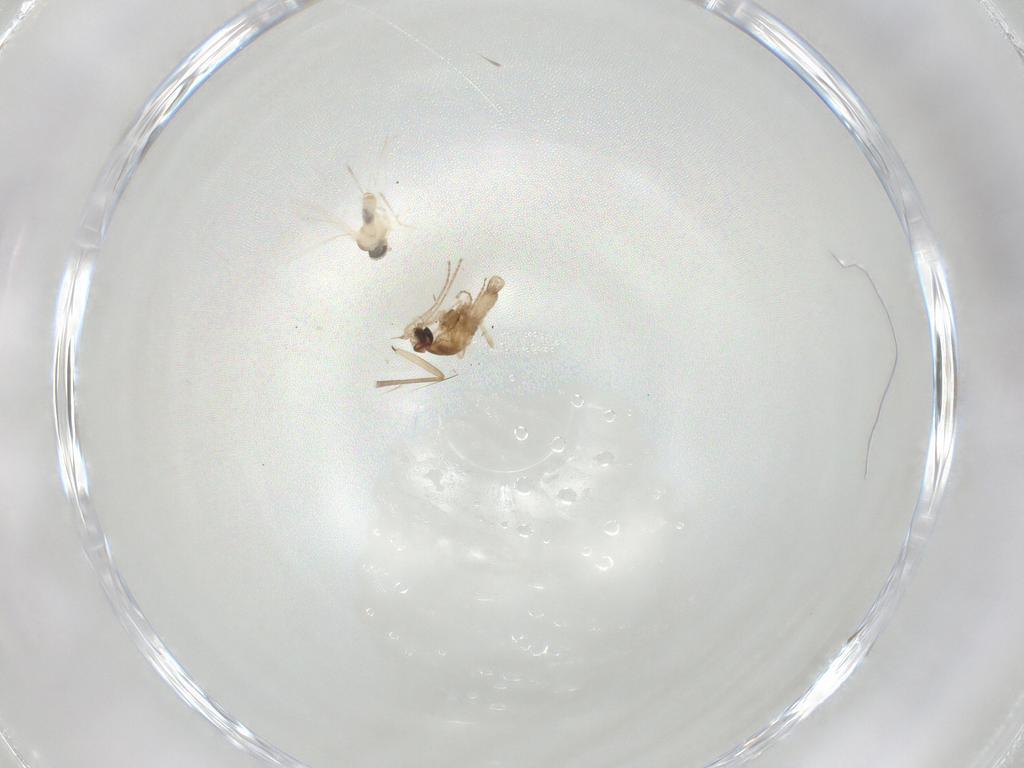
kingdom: Animalia
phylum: Arthropoda
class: Insecta
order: Diptera
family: Cecidomyiidae
